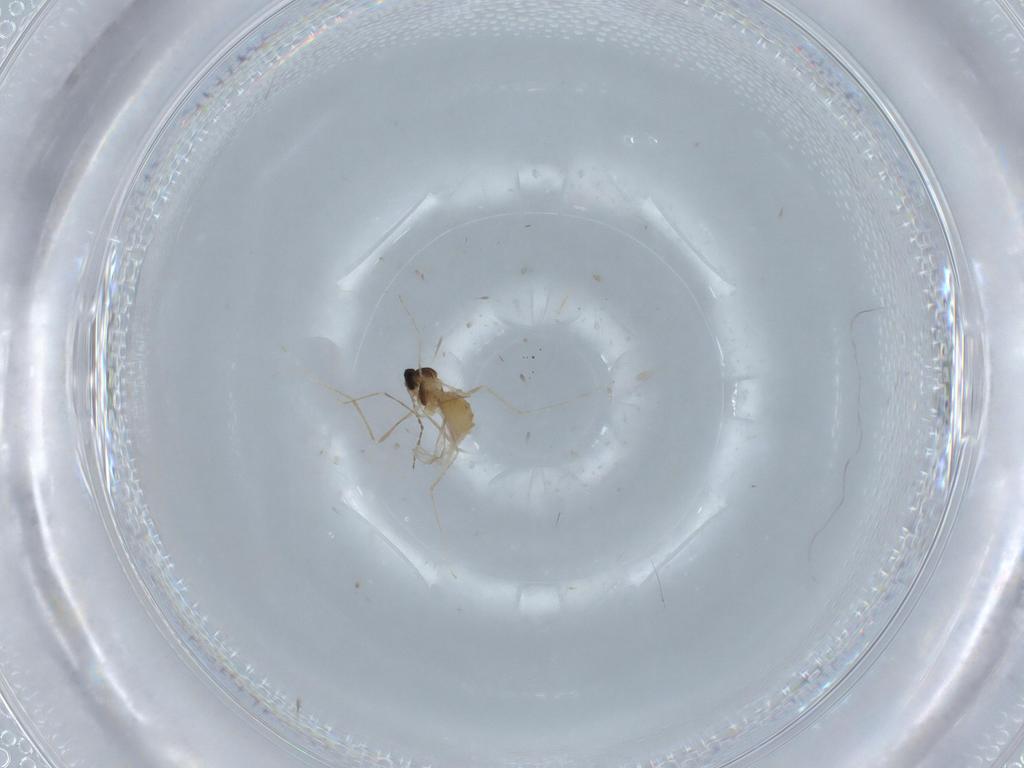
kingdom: Animalia
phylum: Arthropoda
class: Insecta
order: Diptera
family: Cecidomyiidae
